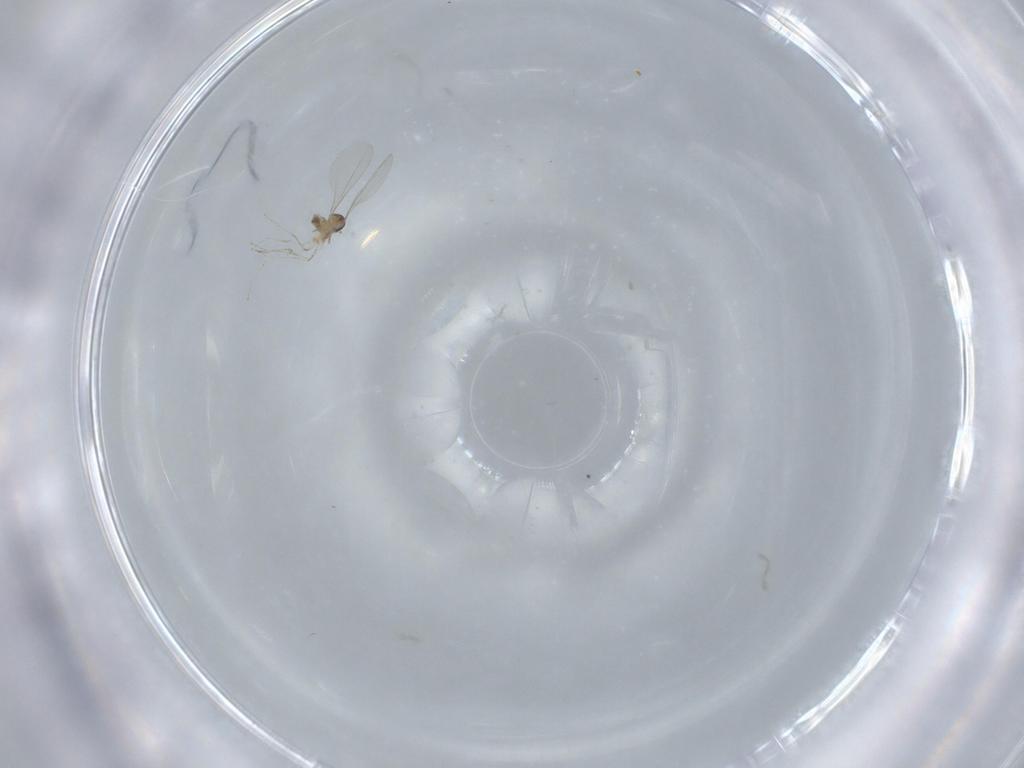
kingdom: Animalia
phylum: Arthropoda
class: Insecta
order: Diptera
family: Cecidomyiidae
